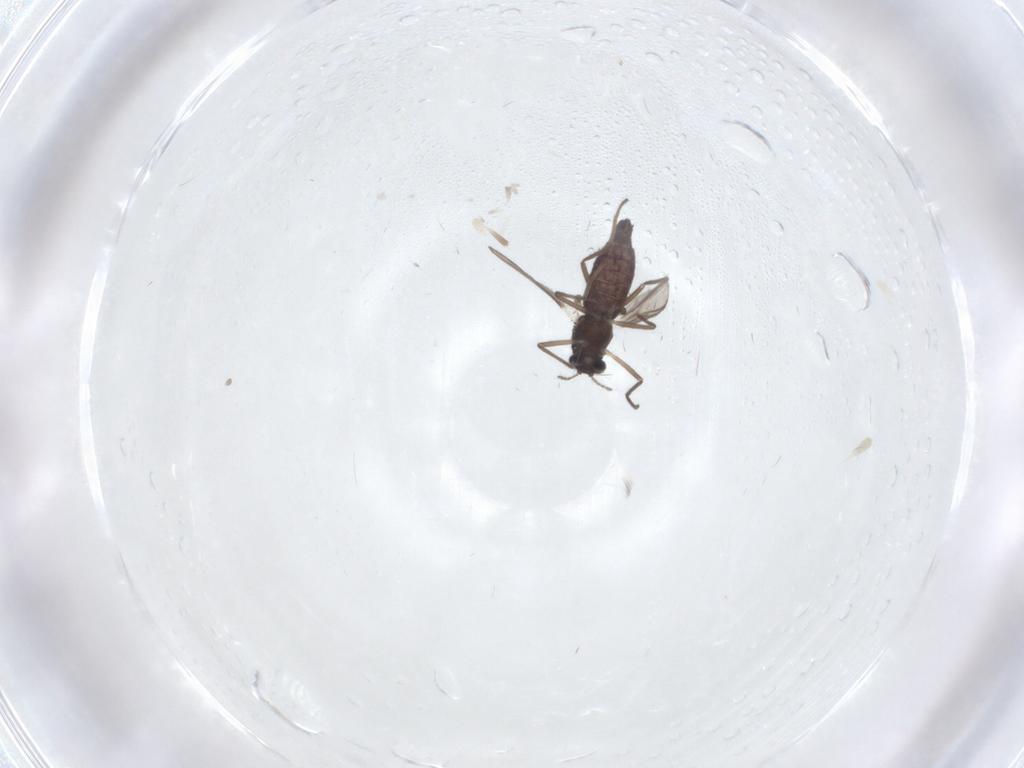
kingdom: Animalia
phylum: Arthropoda
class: Insecta
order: Diptera
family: Chironomidae
